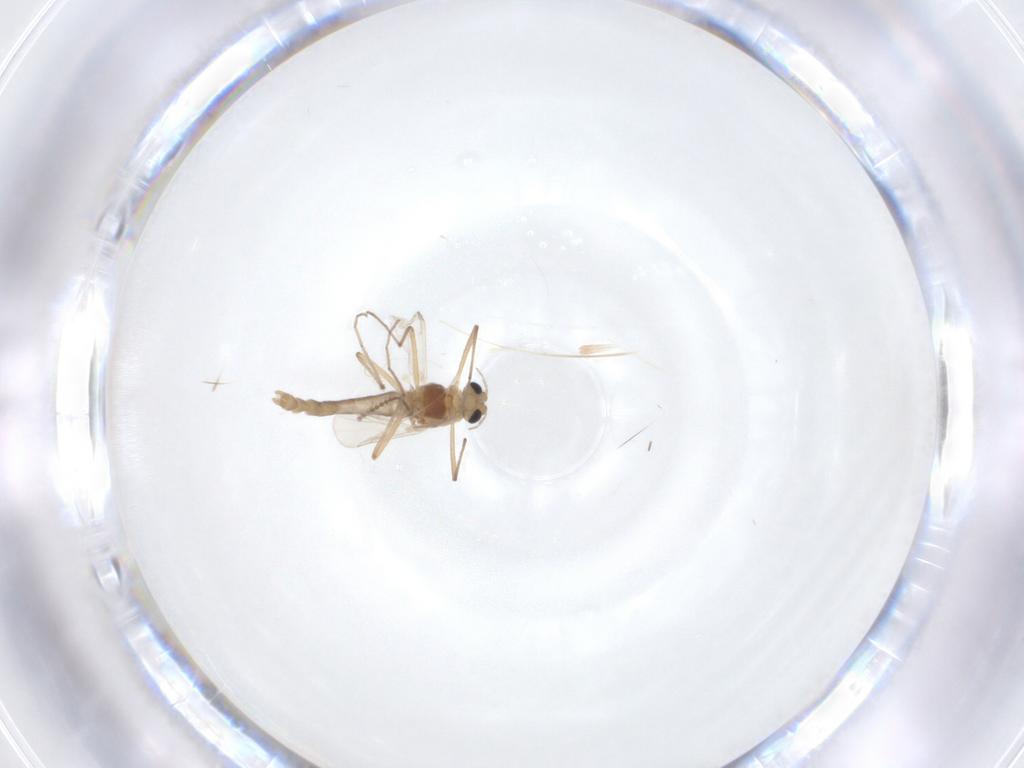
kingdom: Animalia
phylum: Arthropoda
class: Insecta
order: Diptera
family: Chironomidae
